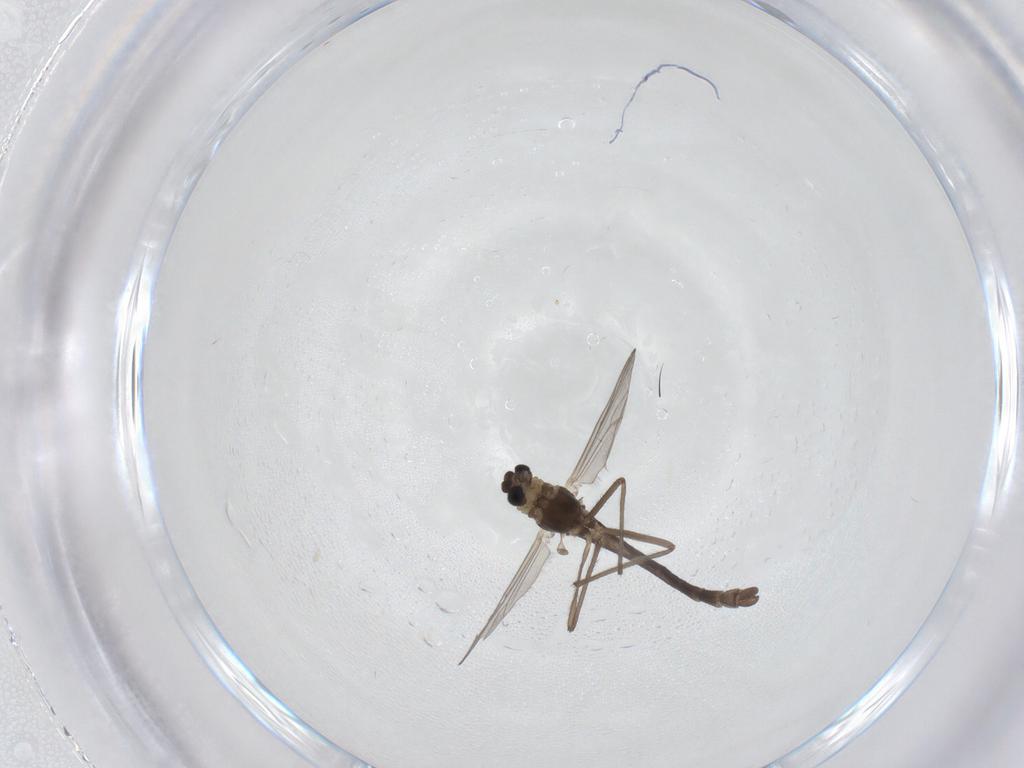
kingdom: Animalia
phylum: Arthropoda
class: Insecta
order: Diptera
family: Chironomidae
